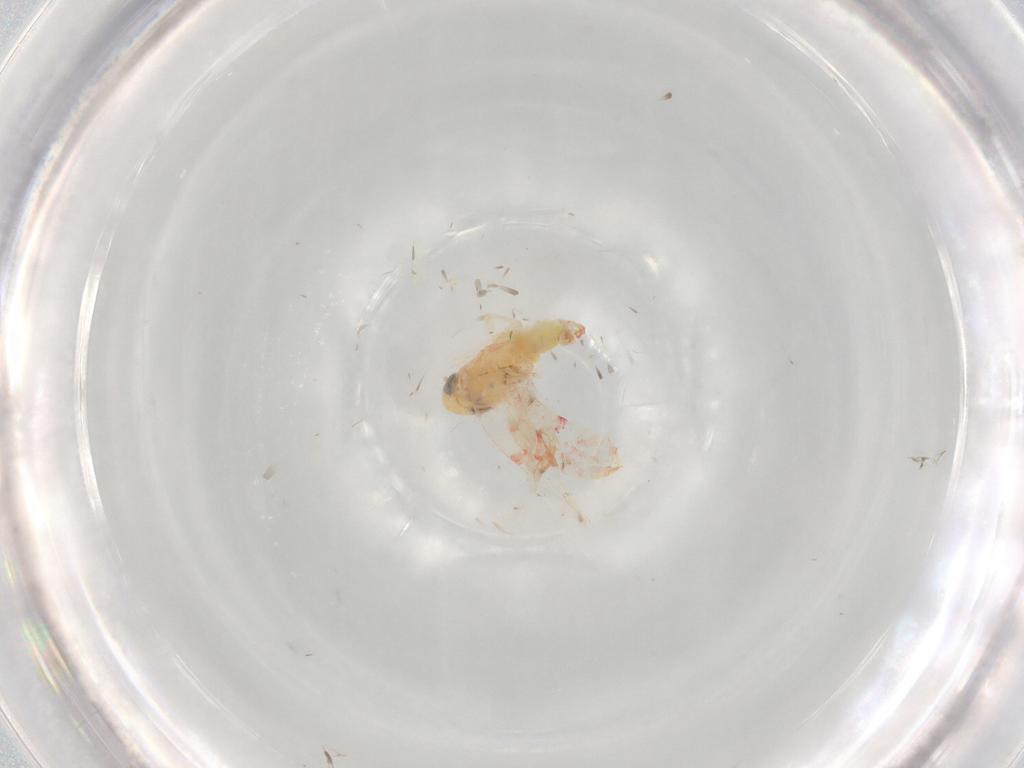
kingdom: Animalia
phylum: Arthropoda
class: Insecta
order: Hemiptera
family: Cicadellidae
